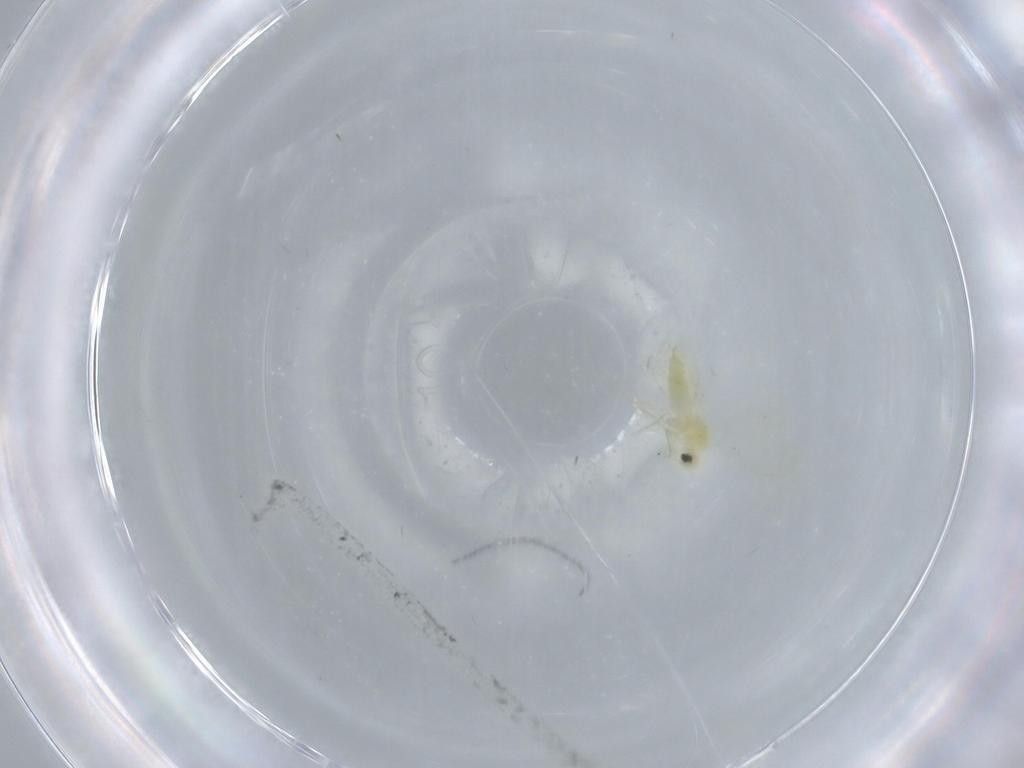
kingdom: Animalia
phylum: Arthropoda
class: Insecta
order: Hemiptera
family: Aleyrodidae
